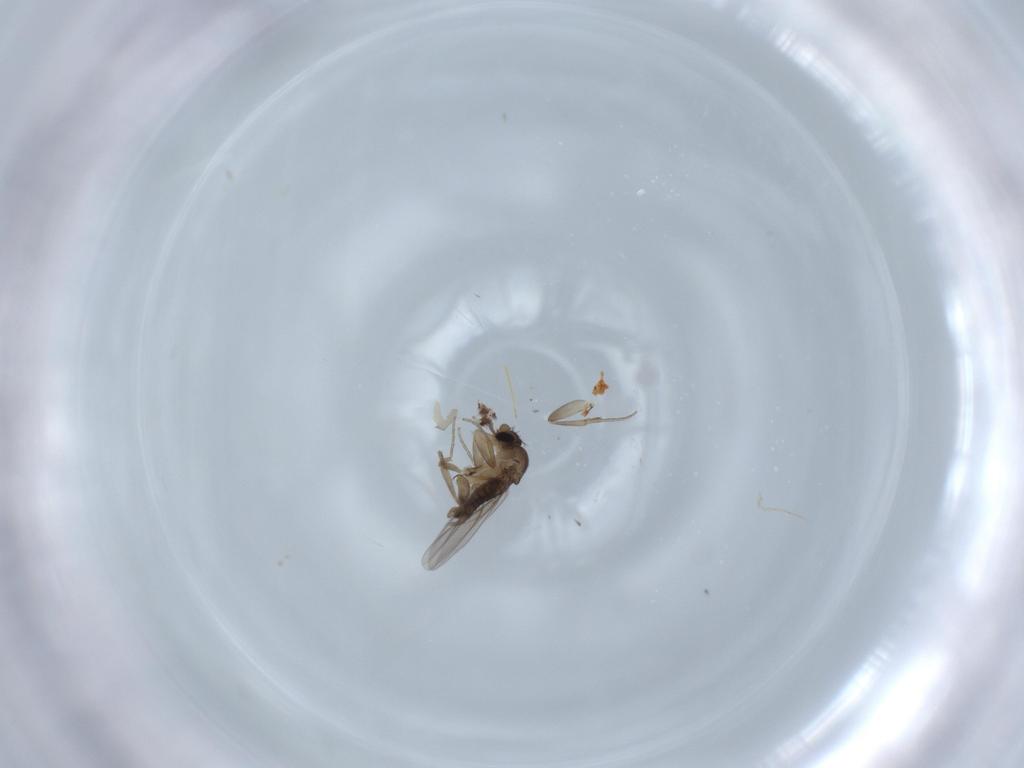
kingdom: Animalia
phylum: Arthropoda
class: Insecta
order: Diptera
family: Phoridae
